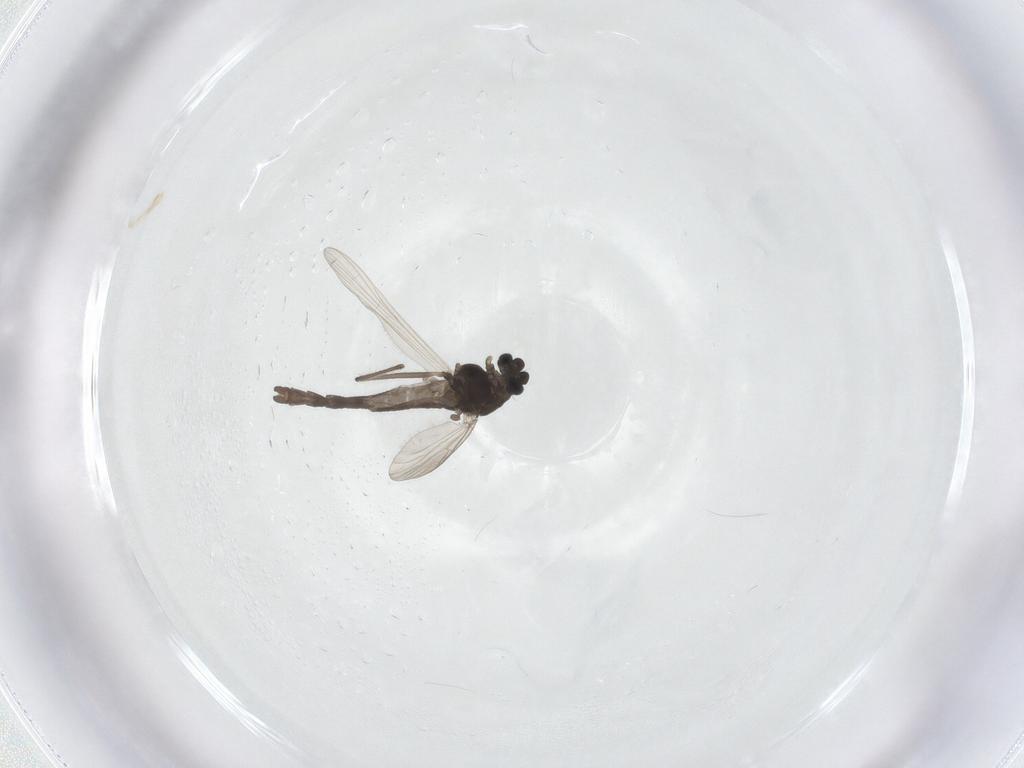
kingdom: Animalia
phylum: Arthropoda
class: Insecta
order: Diptera
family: Chironomidae
